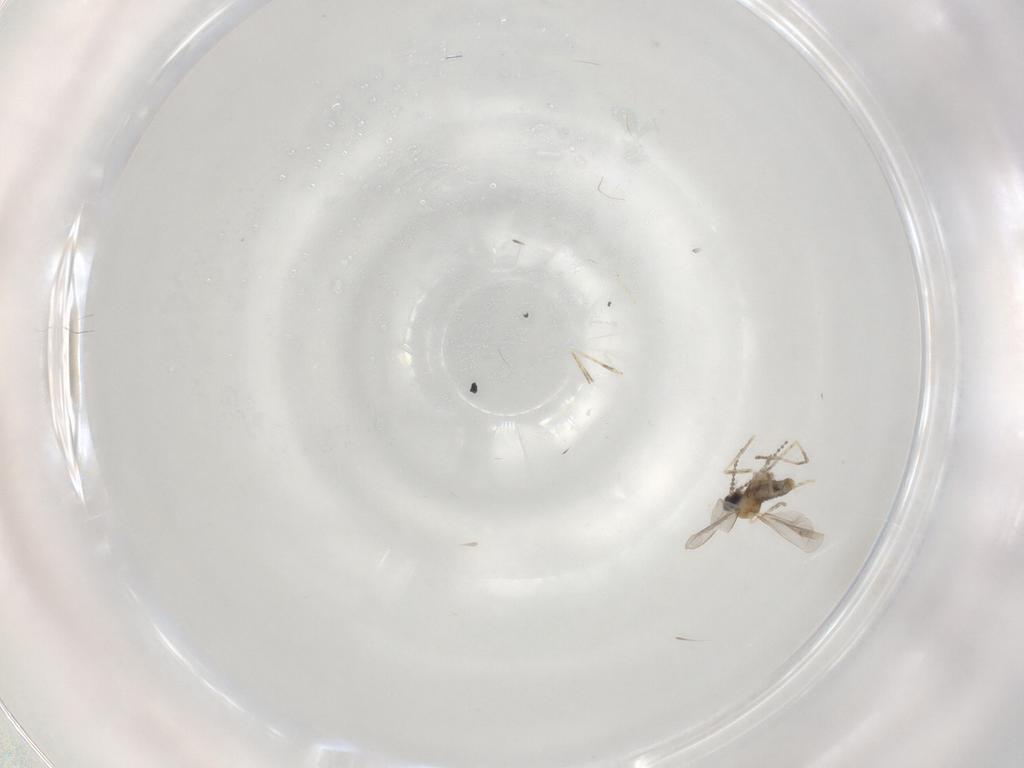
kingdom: Animalia
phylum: Arthropoda
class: Insecta
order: Diptera
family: Cecidomyiidae
